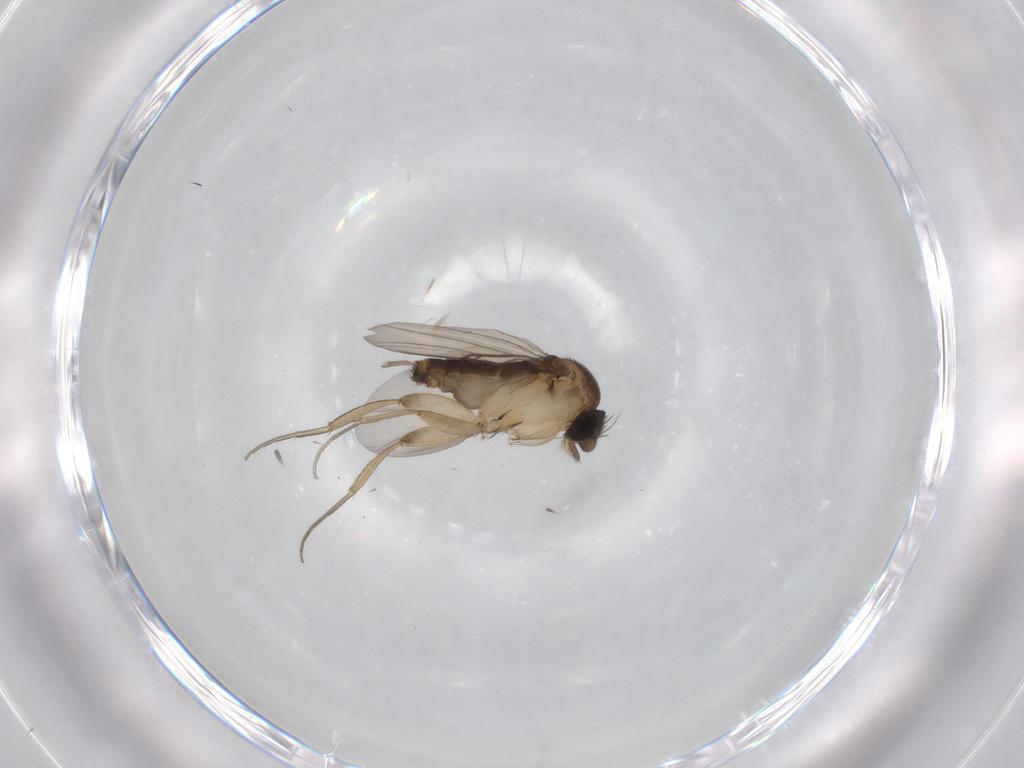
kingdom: Animalia
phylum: Arthropoda
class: Insecta
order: Diptera
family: Phoridae
